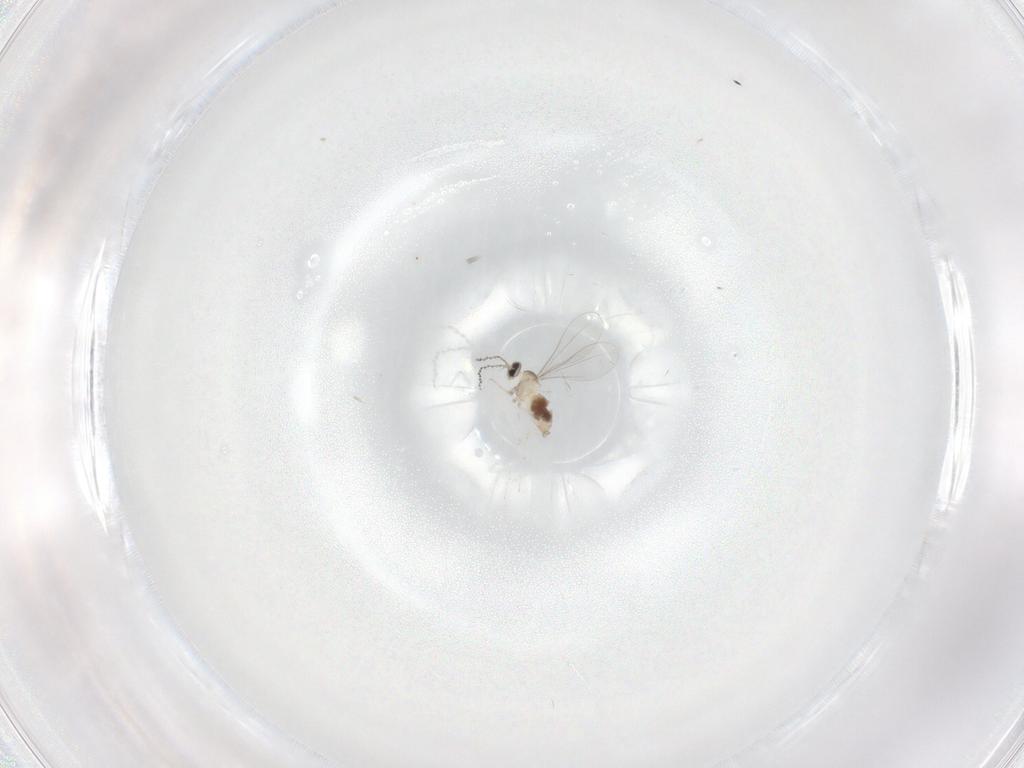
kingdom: Animalia
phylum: Arthropoda
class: Insecta
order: Diptera
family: Cecidomyiidae
